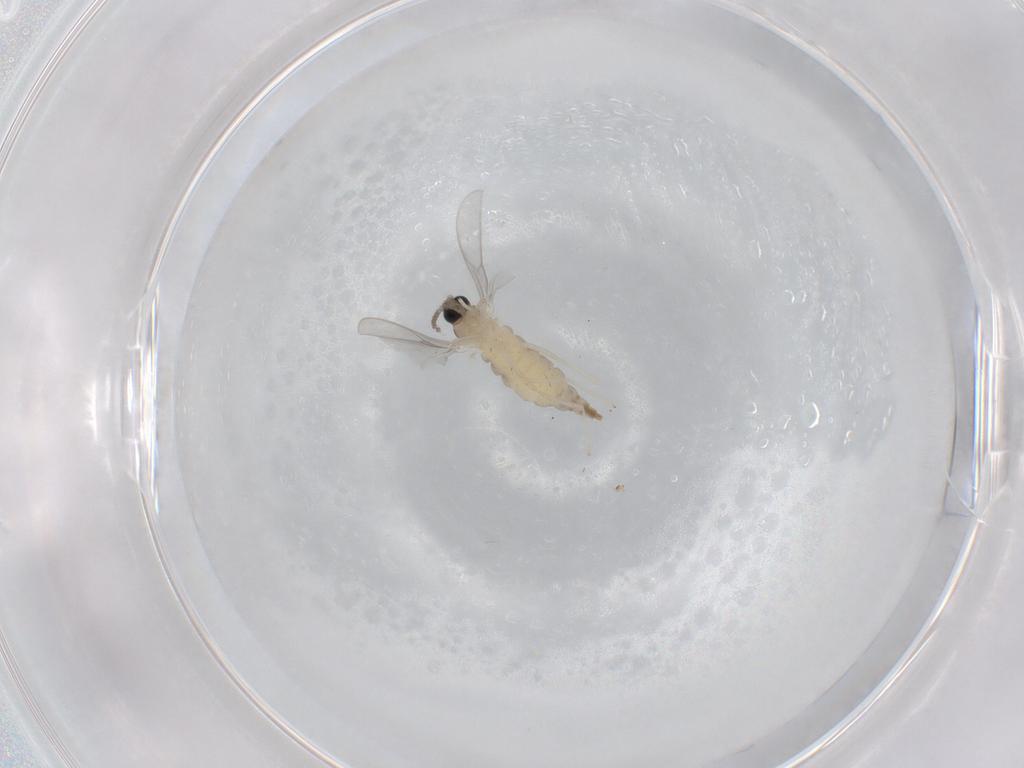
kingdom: Animalia
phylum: Arthropoda
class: Insecta
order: Diptera
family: Cecidomyiidae
